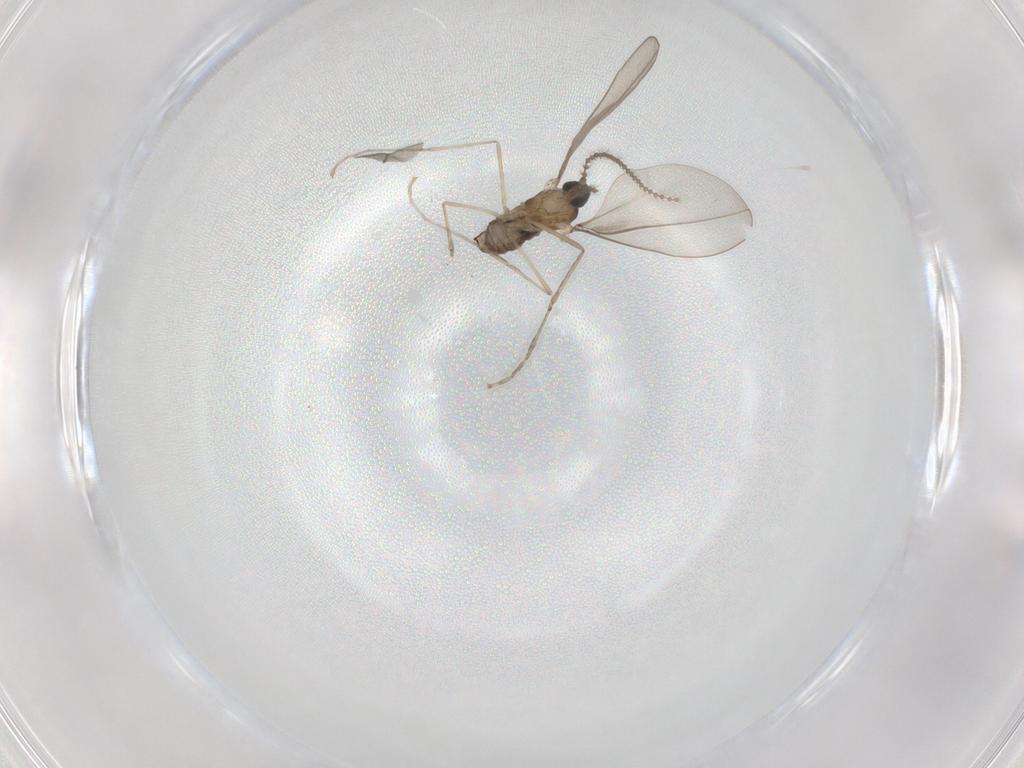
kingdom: Animalia
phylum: Arthropoda
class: Insecta
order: Diptera
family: Cecidomyiidae
